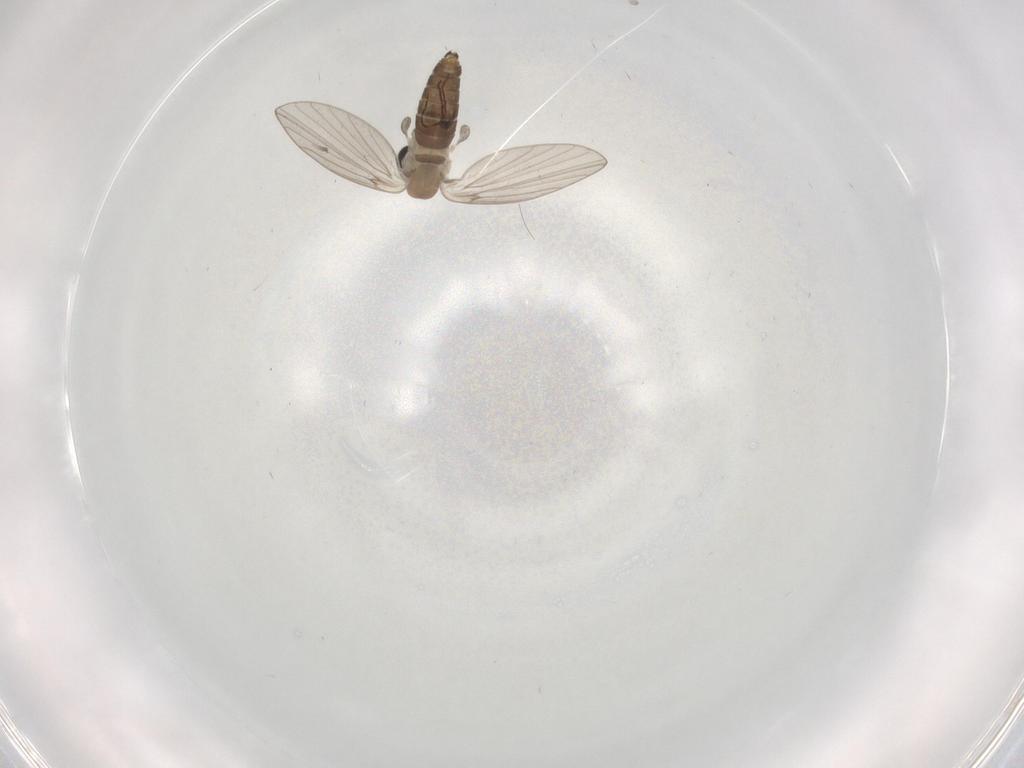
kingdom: Animalia
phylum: Arthropoda
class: Insecta
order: Diptera
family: Psychodidae
